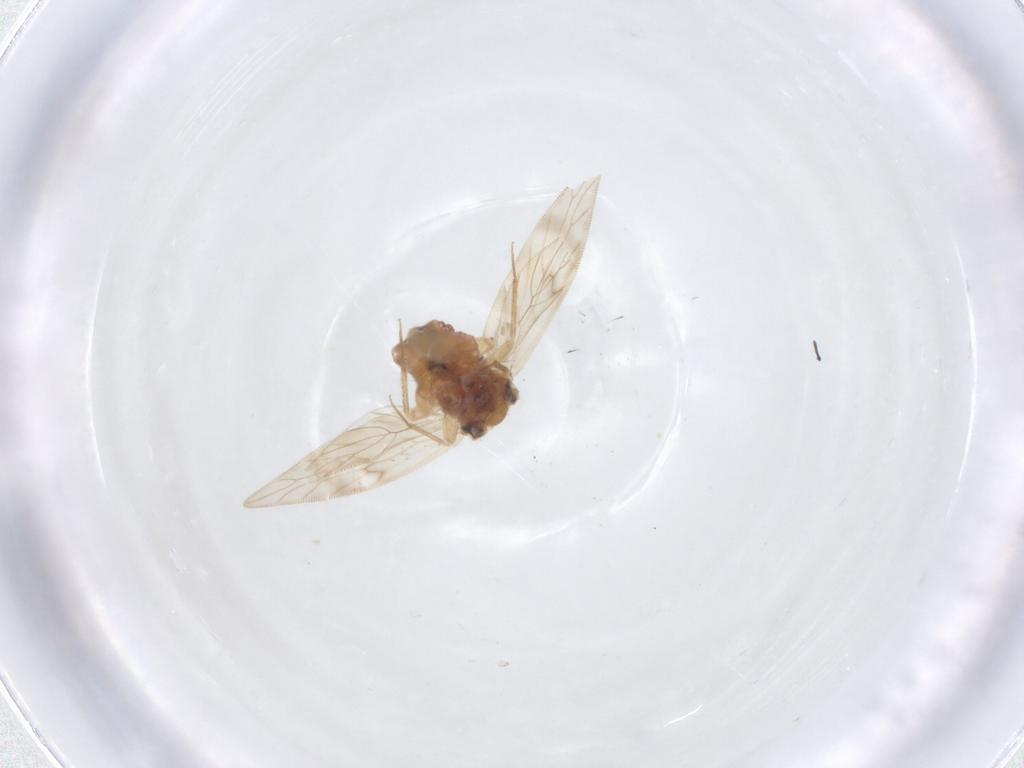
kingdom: Animalia
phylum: Arthropoda
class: Insecta
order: Psocodea
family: Lepidopsocidae
